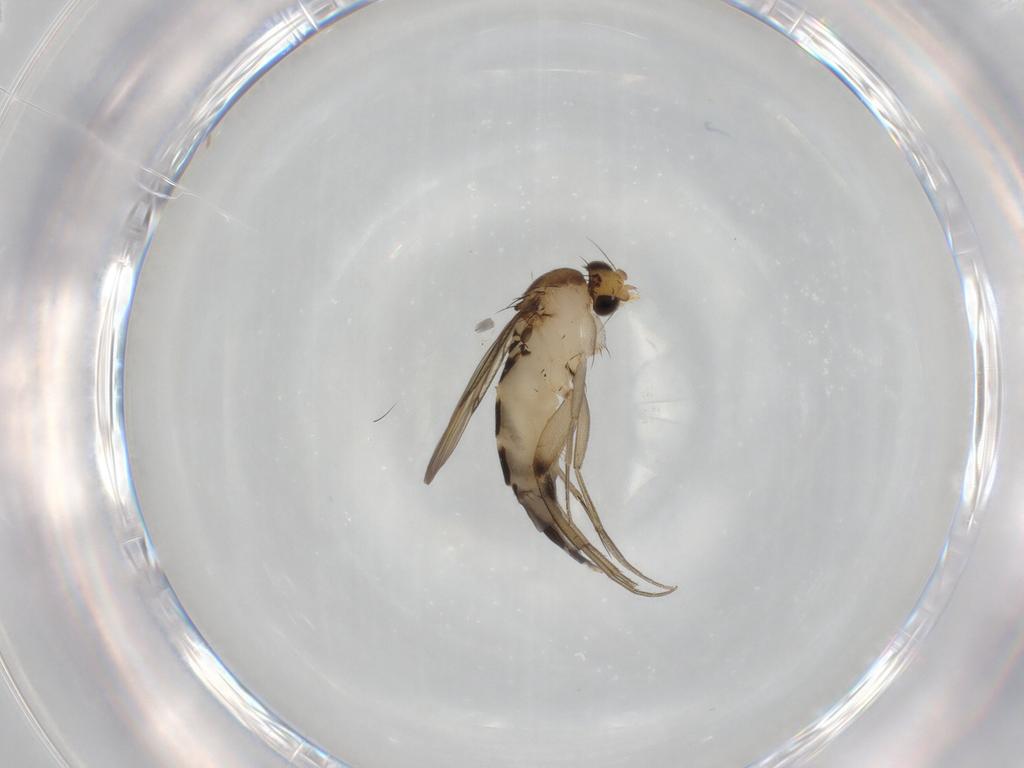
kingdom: Animalia
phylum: Arthropoda
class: Insecta
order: Diptera
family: Phoridae
